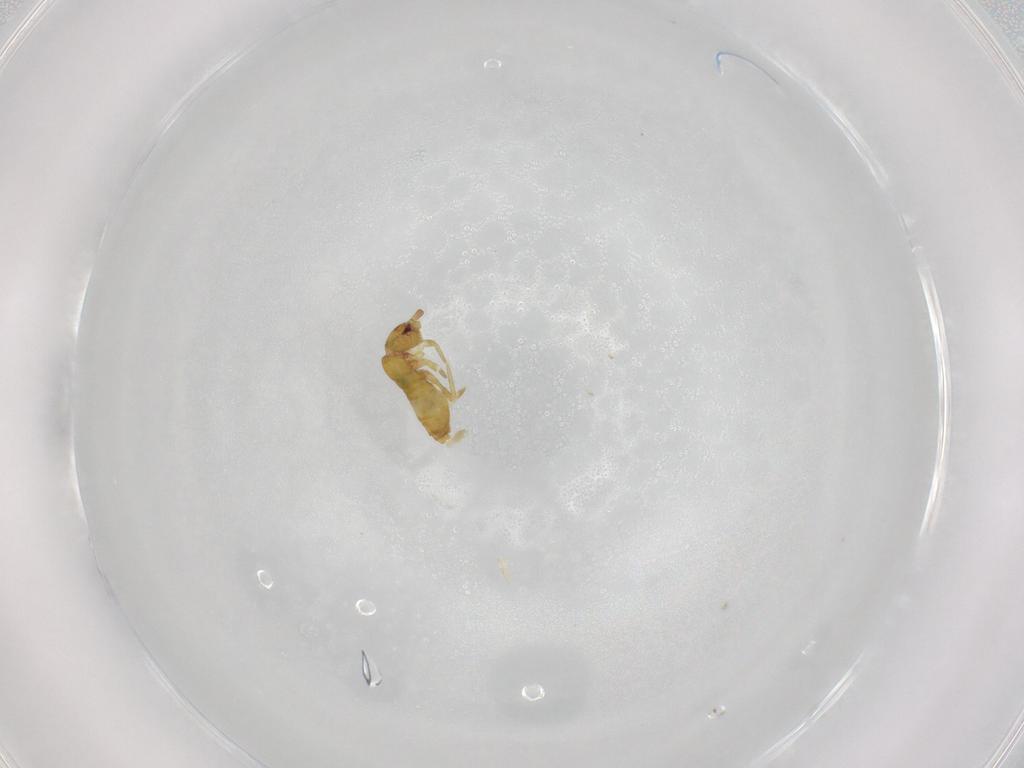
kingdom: Animalia
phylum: Arthropoda
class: Collembola
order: Entomobryomorpha
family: Tomoceridae
